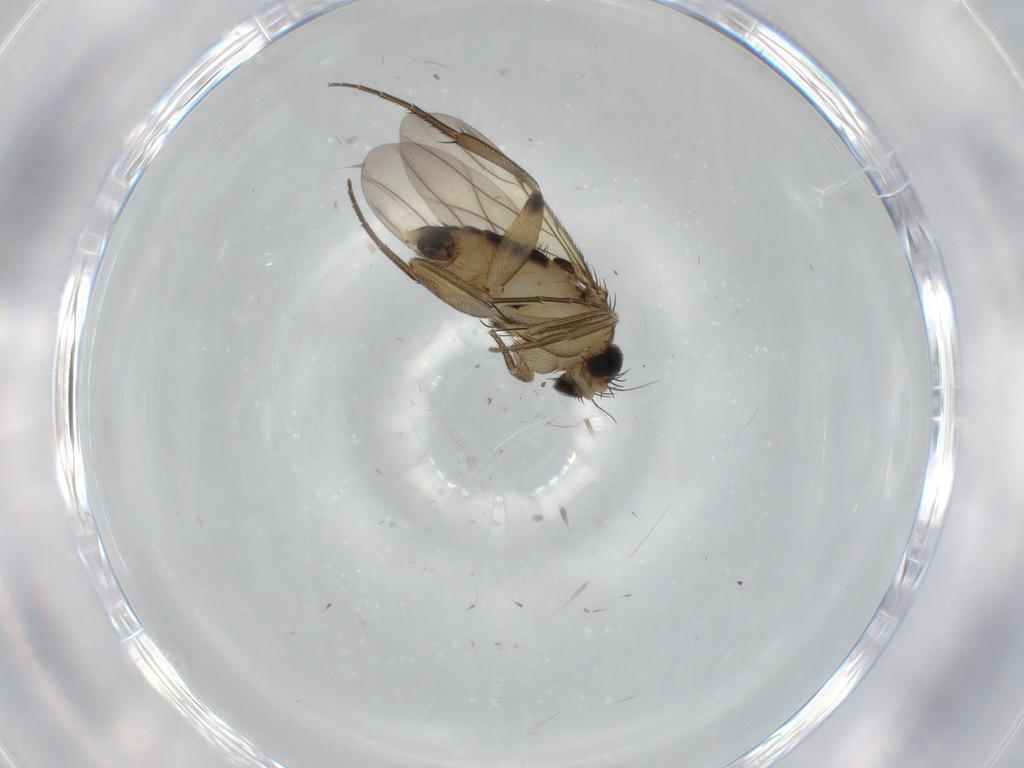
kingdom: Animalia
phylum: Arthropoda
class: Insecta
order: Diptera
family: Phoridae
